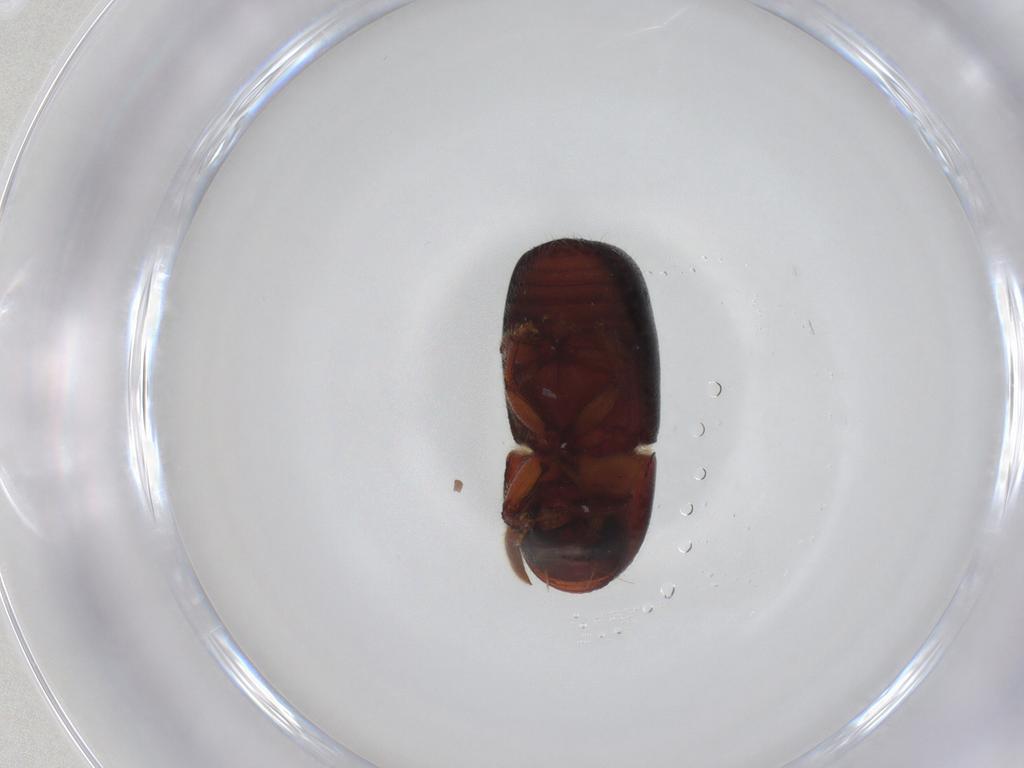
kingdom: Animalia
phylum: Arthropoda
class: Insecta
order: Coleoptera
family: Curculionidae
